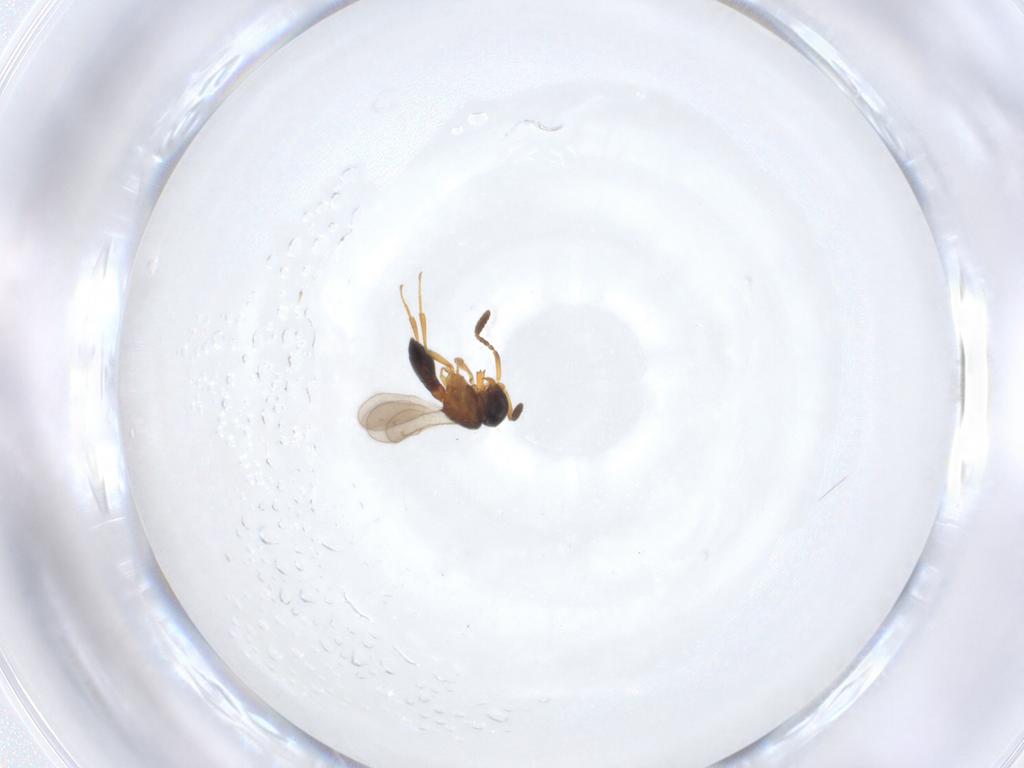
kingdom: Animalia
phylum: Arthropoda
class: Insecta
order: Hymenoptera
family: Scelionidae
